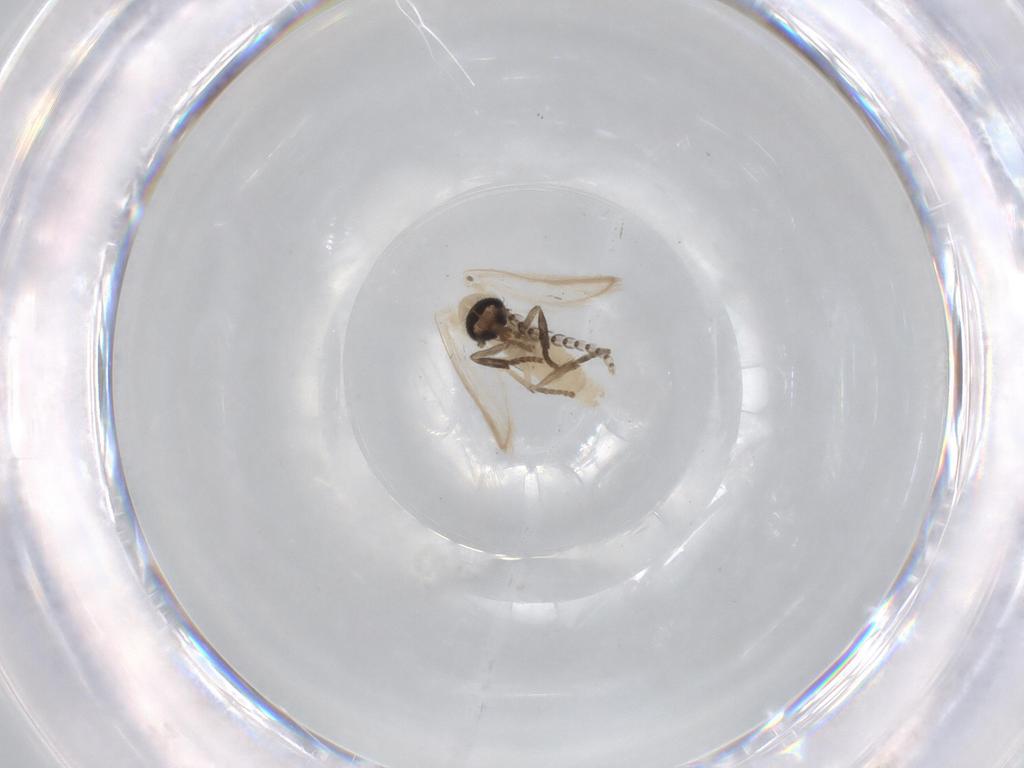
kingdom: Animalia
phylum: Arthropoda
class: Insecta
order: Diptera
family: Psychodidae
